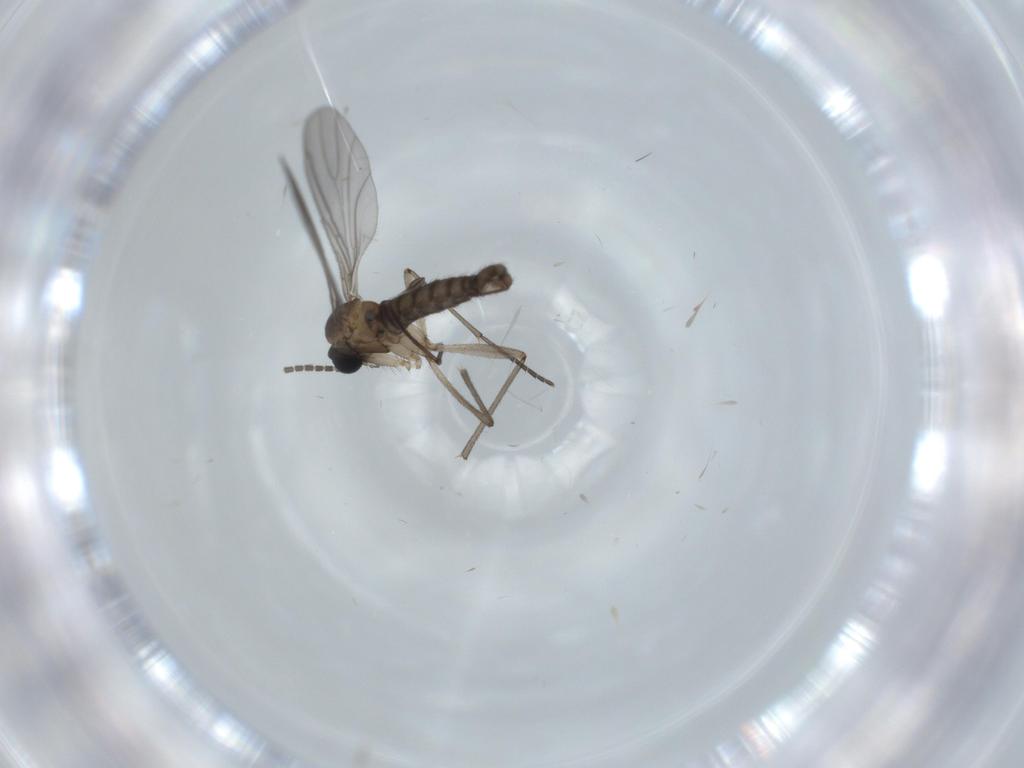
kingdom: Animalia
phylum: Arthropoda
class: Insecta
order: Diptera
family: Sciaridae
